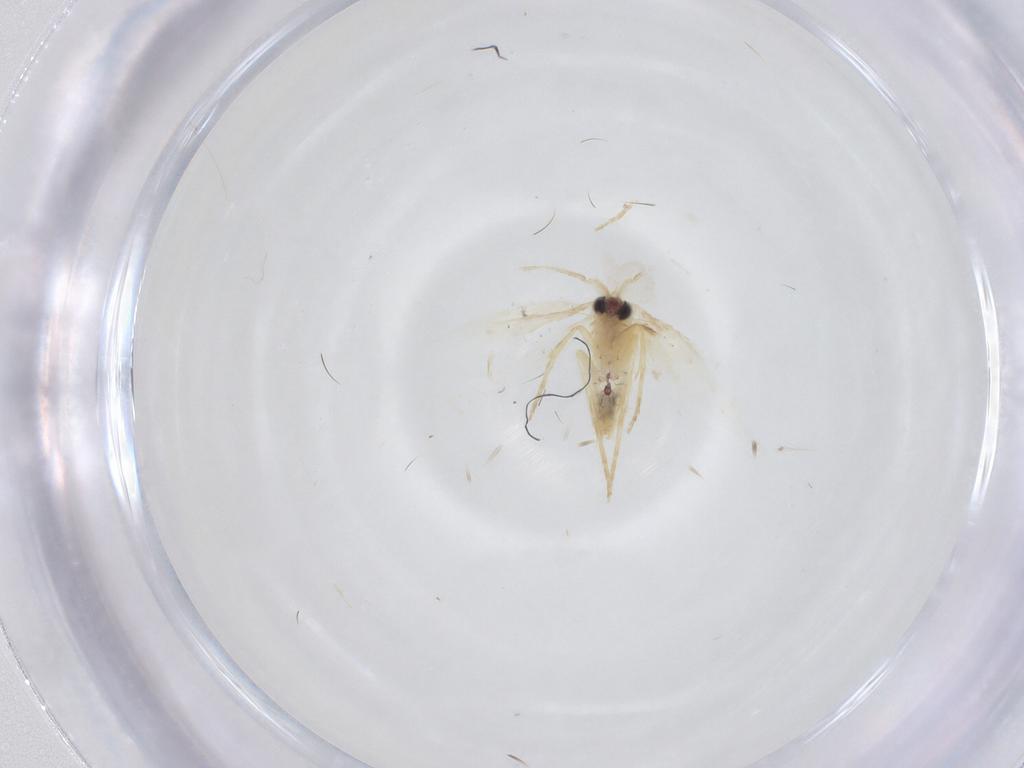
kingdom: Animalia
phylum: Arthropoda
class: Insecta
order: Lepidoptera
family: Nepticulidae
